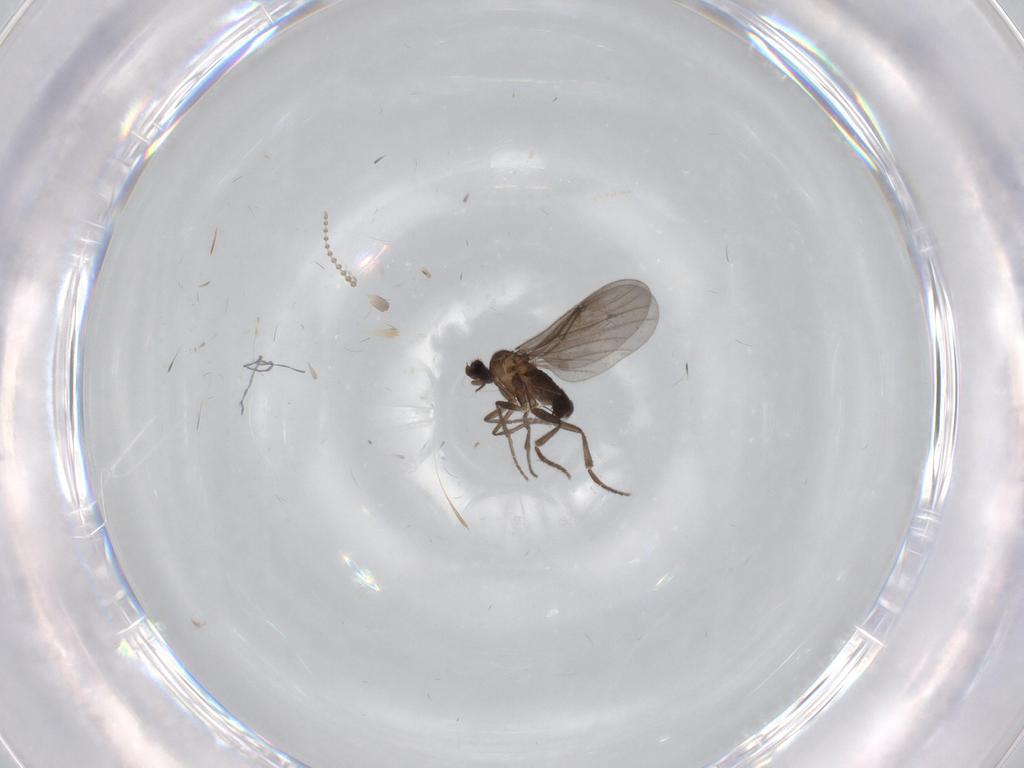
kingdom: Animalia
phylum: Arthropoda
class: Insecta
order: Diptera
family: Phoridae
